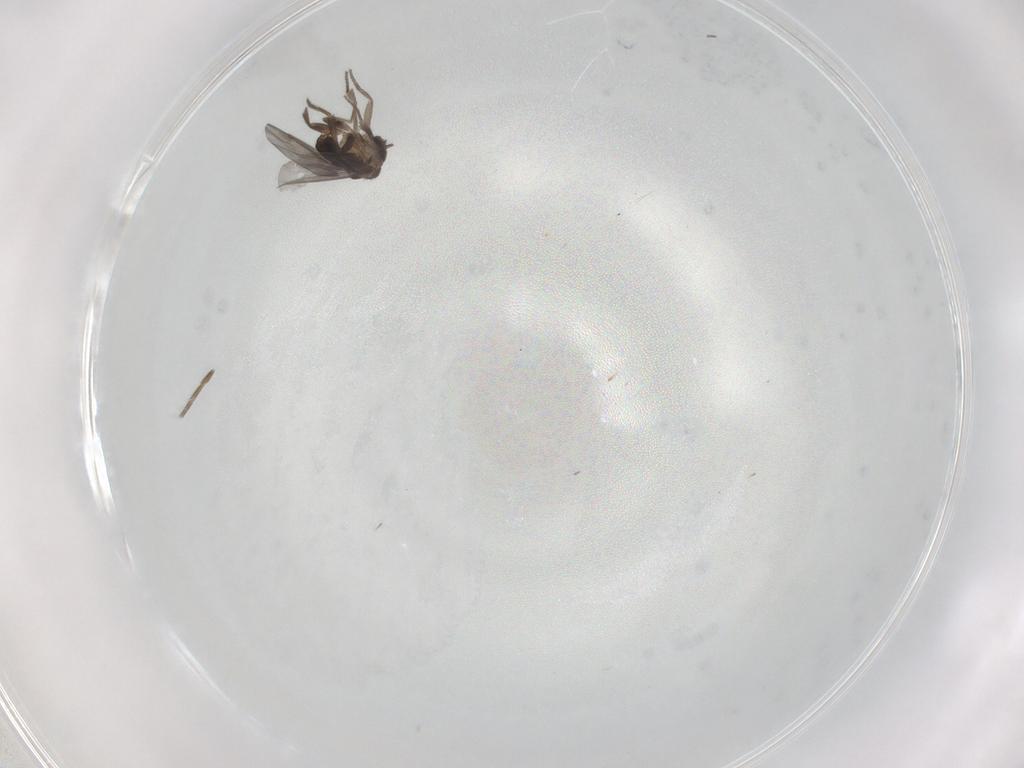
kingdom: Animalia
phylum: Arthropoda
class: Insecta
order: Diptera
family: Phoridae
